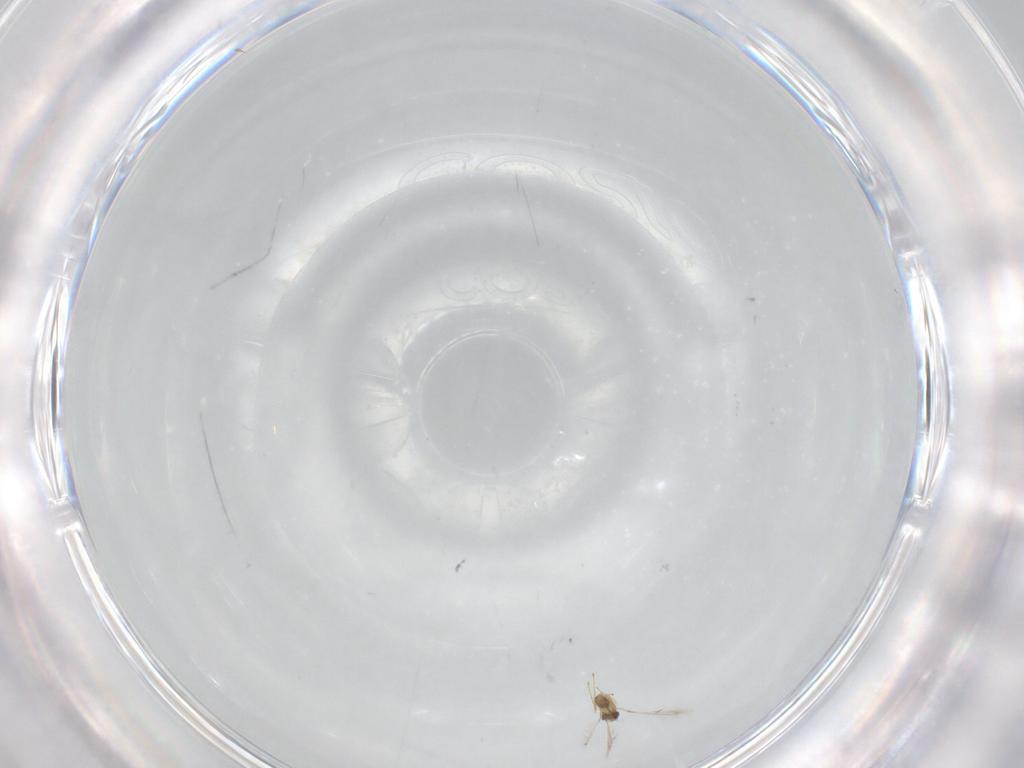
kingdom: Animalia
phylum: Arthropoda
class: Insecta
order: Hymenoptera
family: Mymaridae
